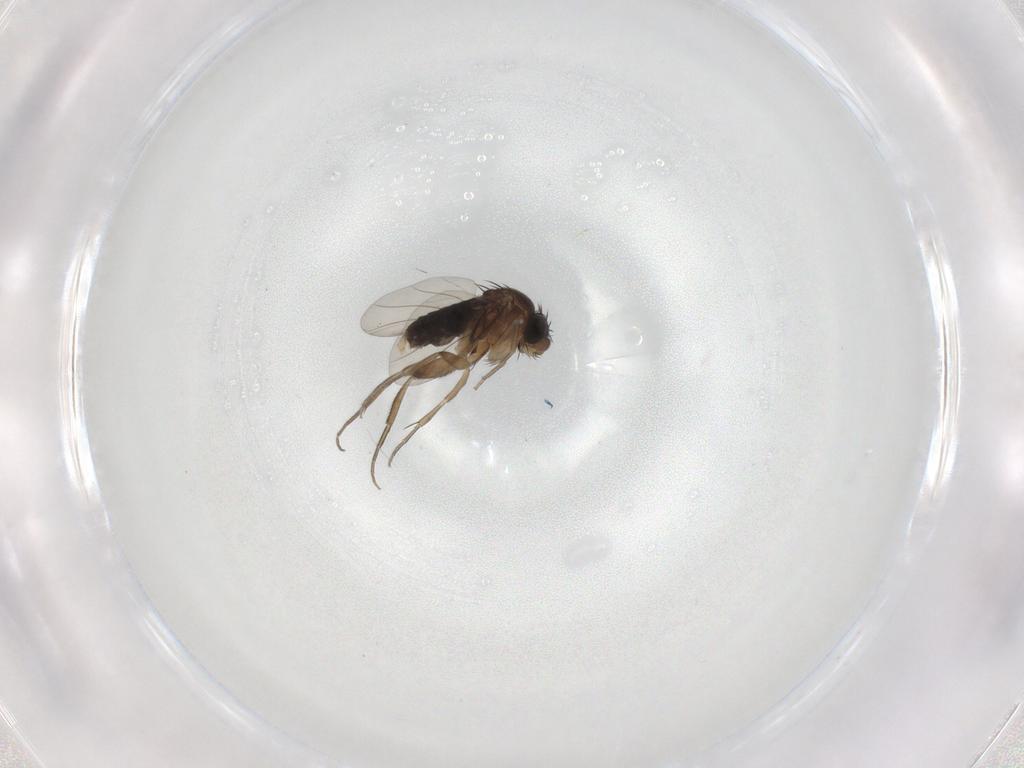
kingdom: Animalia
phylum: Arthropoda
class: Insecta
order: Diptera
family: Phoridae
